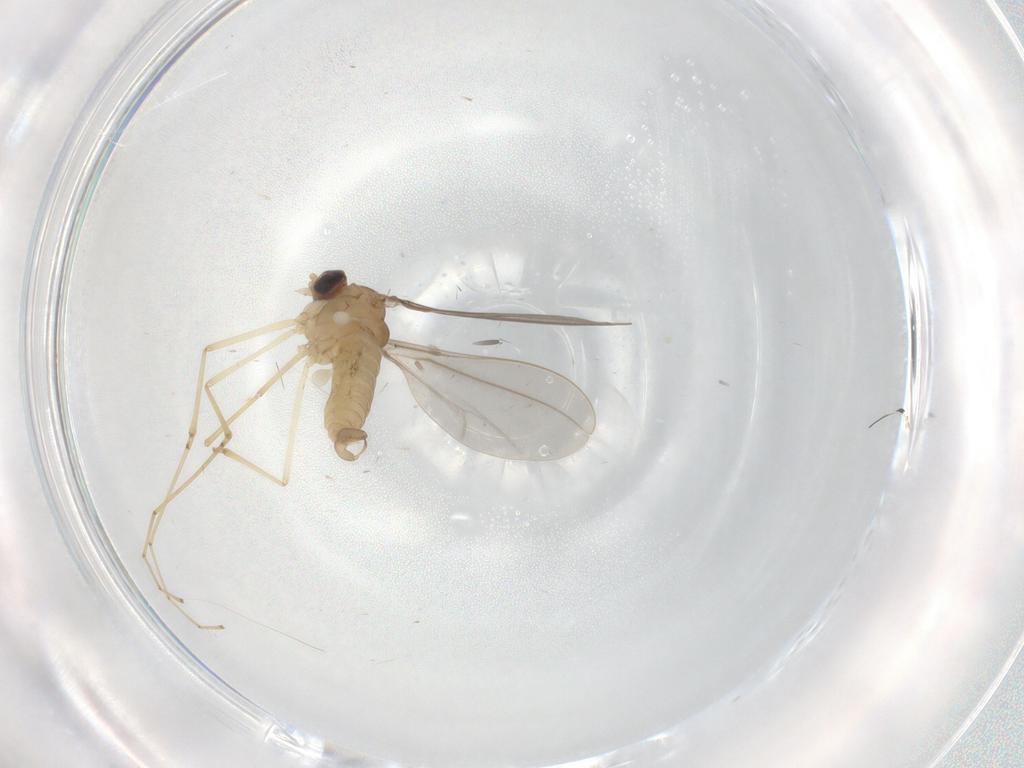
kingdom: Animalia
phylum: Arthropoda
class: Insecta
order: Diptera
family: Cecidomyiidae
